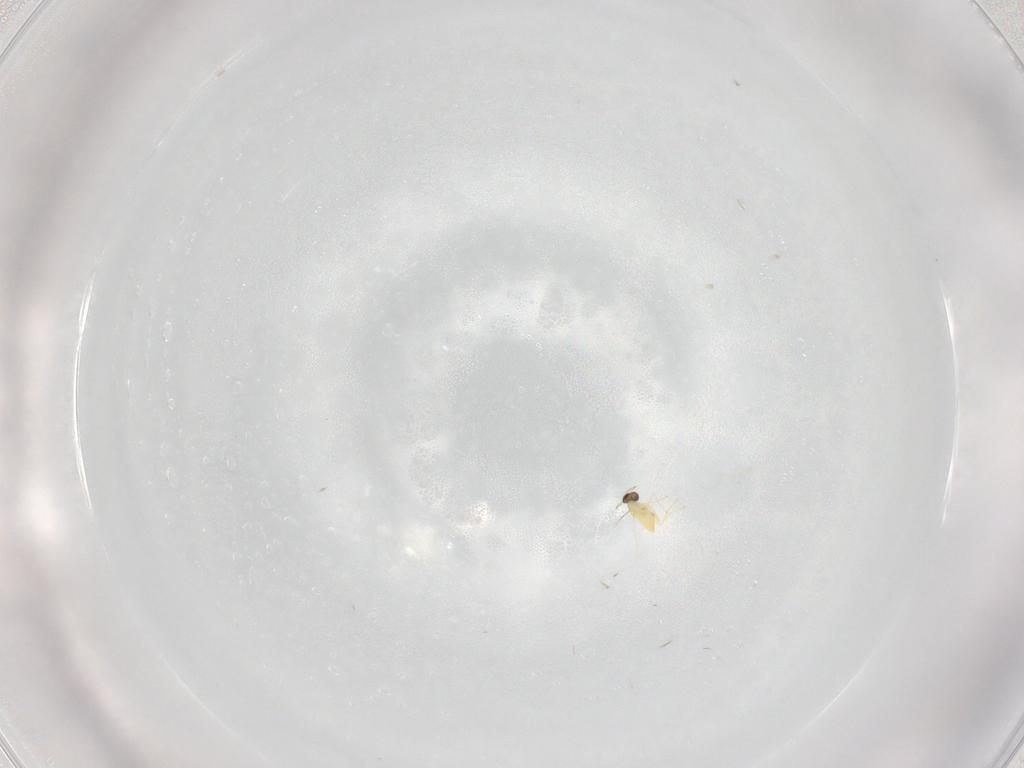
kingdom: Animalia
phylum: Arthropoda
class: Insecta
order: Hymenoptera
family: Trichogrammatidae
